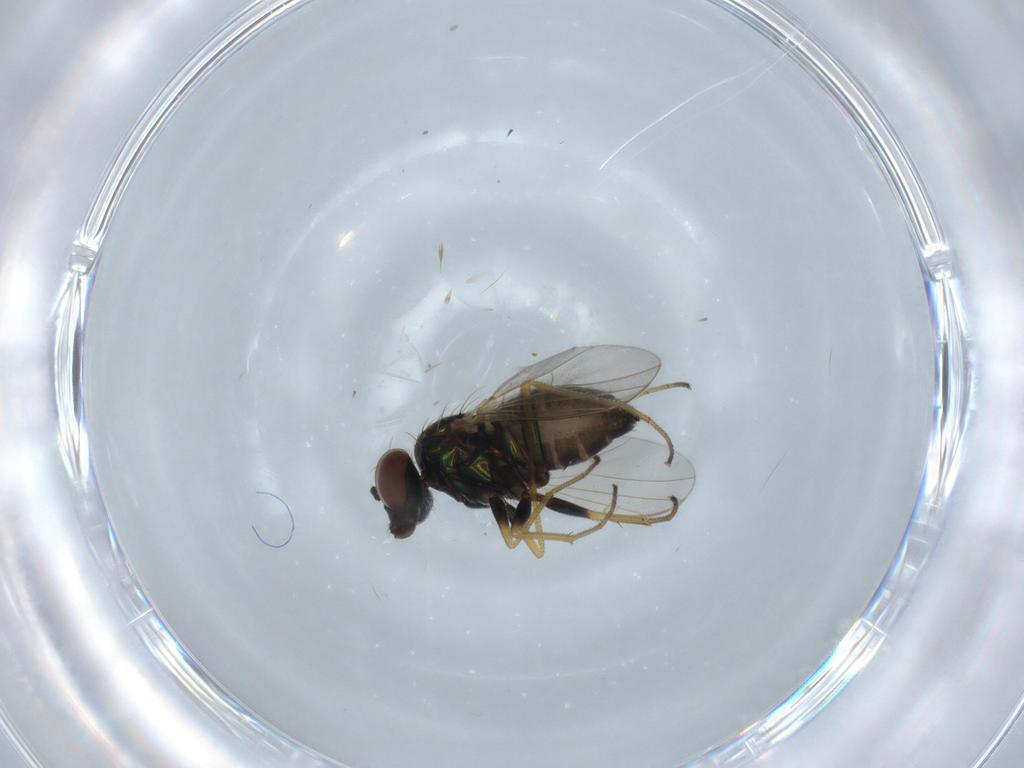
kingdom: Animalia
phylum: Arthropoda
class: Insecta
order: Diptera
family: Dolichopodidae
